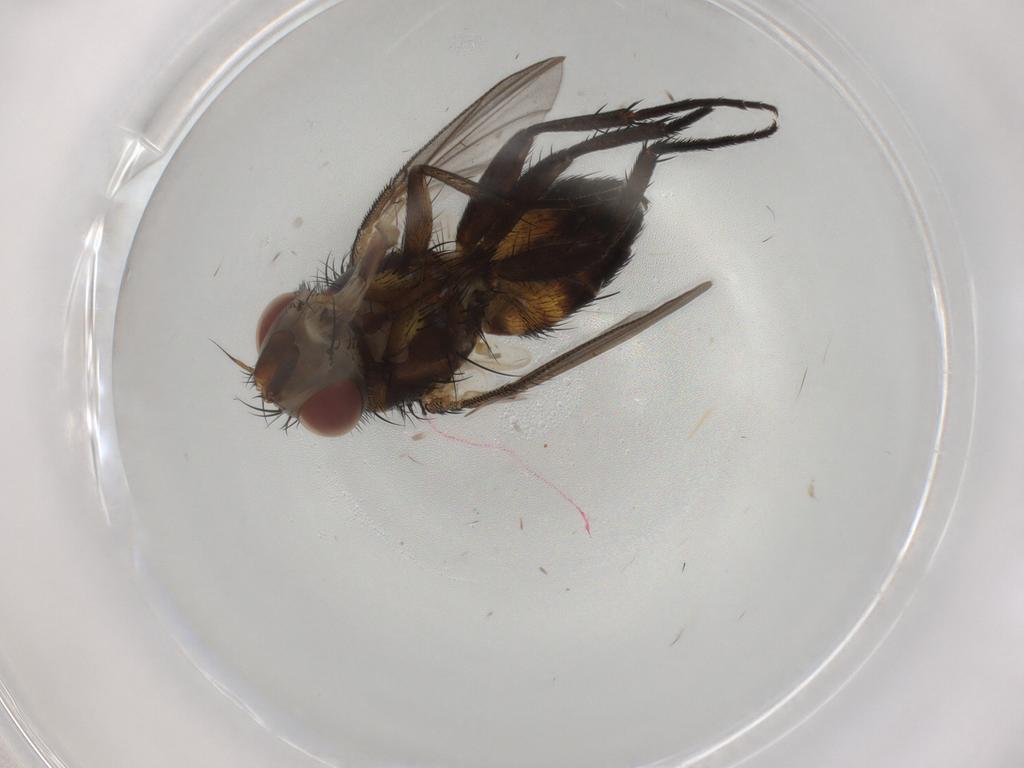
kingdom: Animalia
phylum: Arthropoda
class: Insecta
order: Diptera
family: Tachinidae
